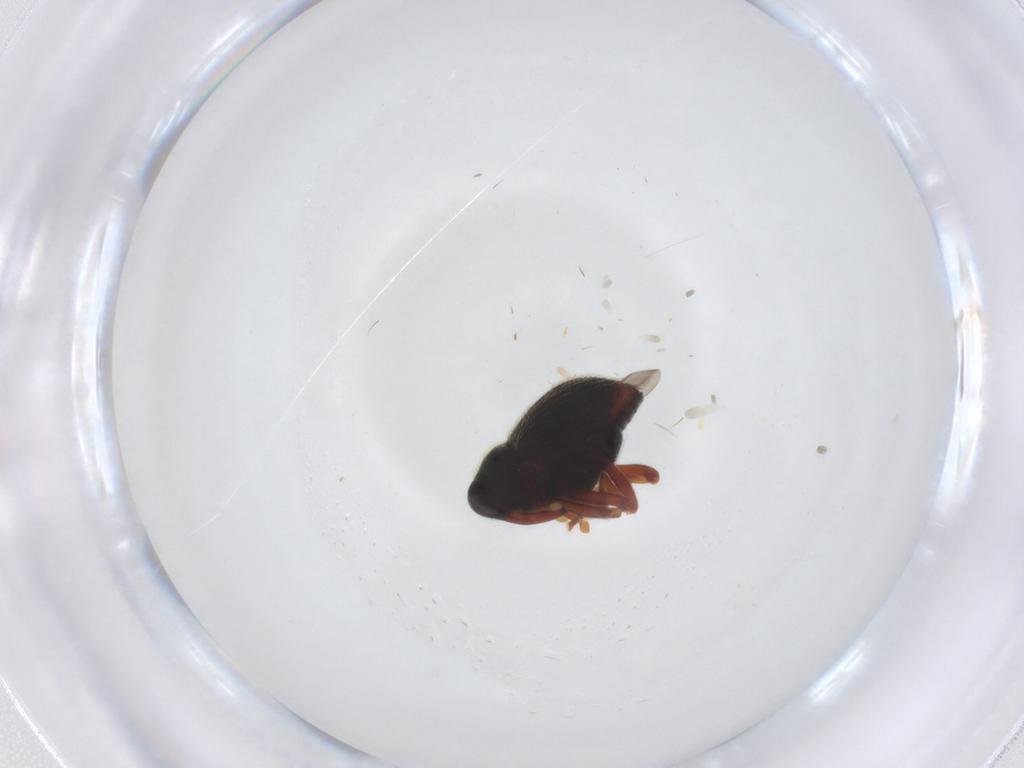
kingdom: Animalia
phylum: Arthropoda
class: Insecta
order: Coleoptera
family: Curculionidae
